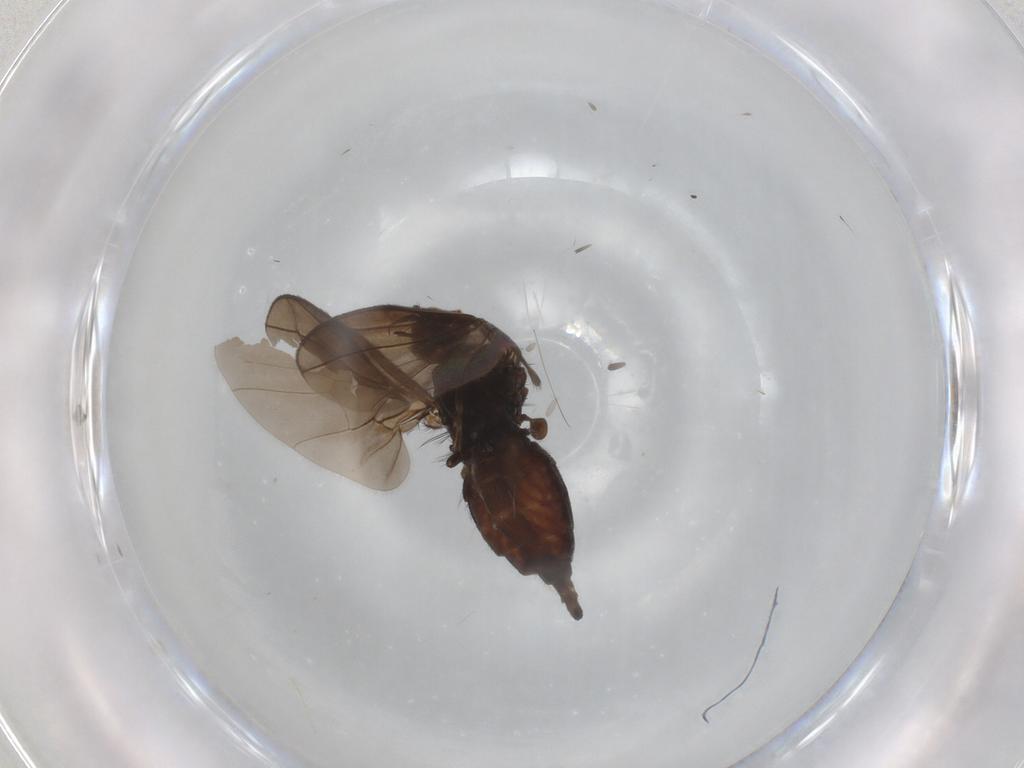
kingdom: Animalia
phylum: Arthropoda
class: Insecta
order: Diptera
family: Empididae
